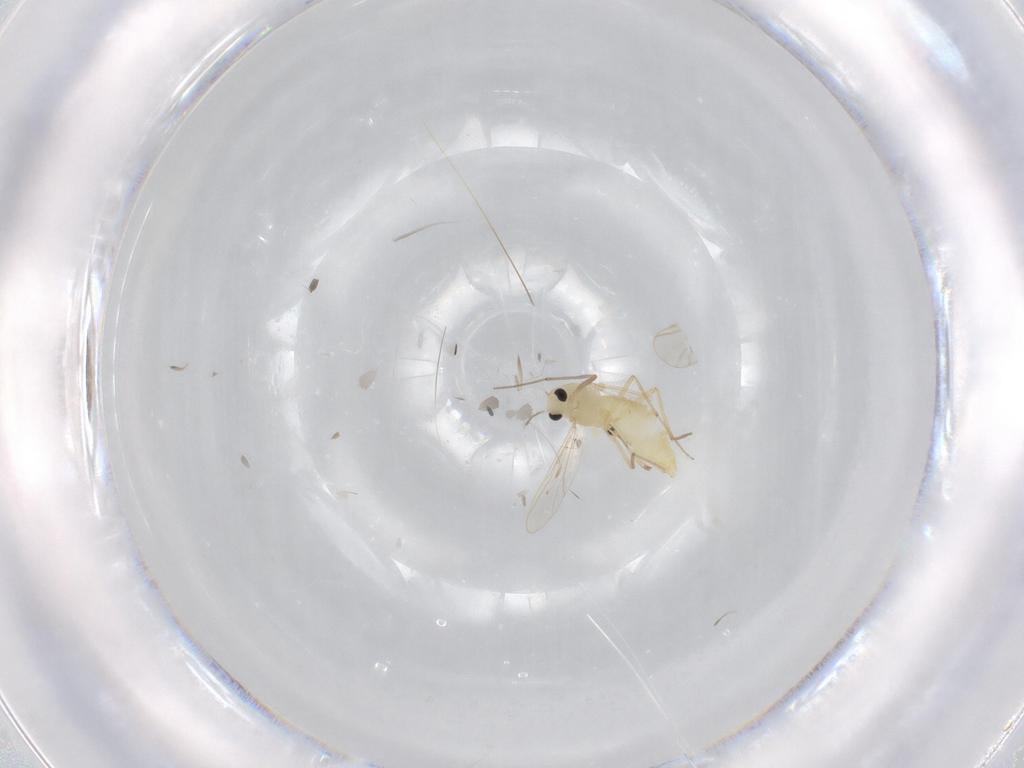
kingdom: Animalia
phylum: Arthropoda
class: Insecta
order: Diptera
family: Chironomidae
